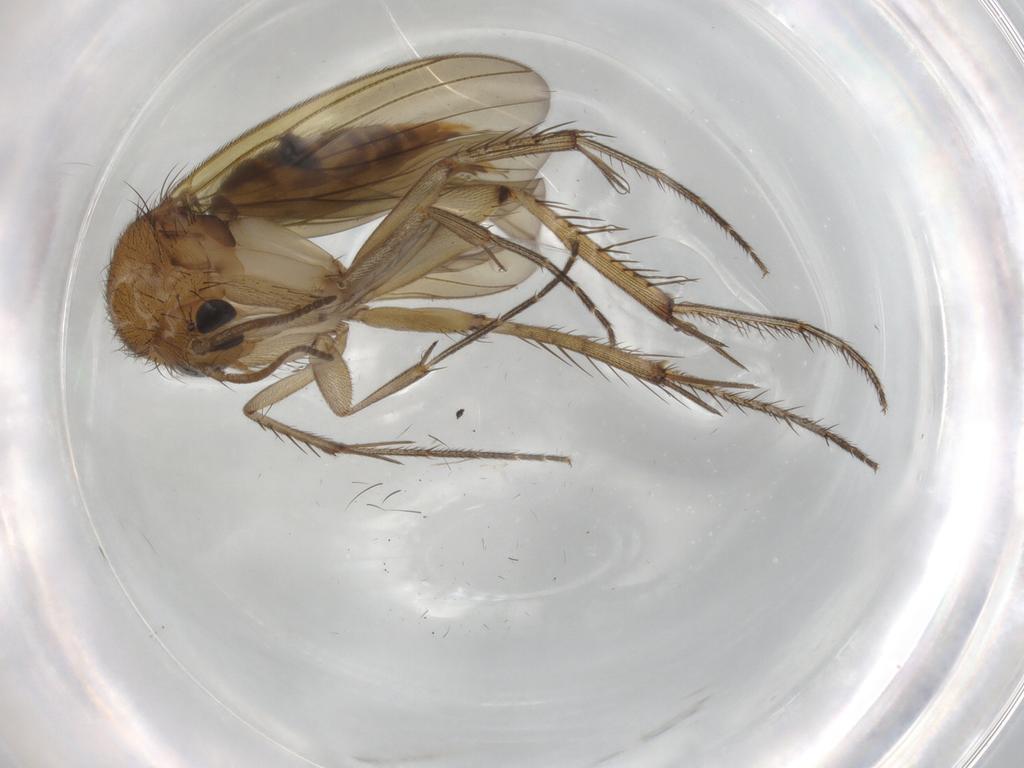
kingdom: Animalia
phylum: Arthropoda
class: Insecta
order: Diptera
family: Mycetophilidae
